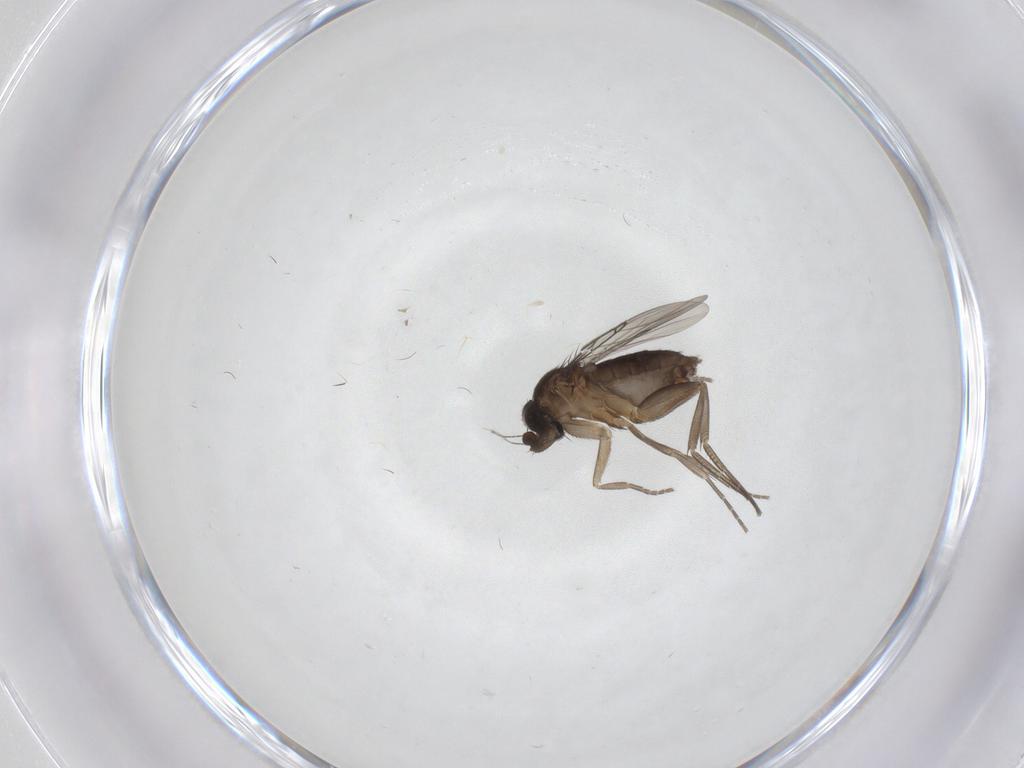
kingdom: Animalia
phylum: Arthropoda
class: Insecta
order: Diptera
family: Phoridae
